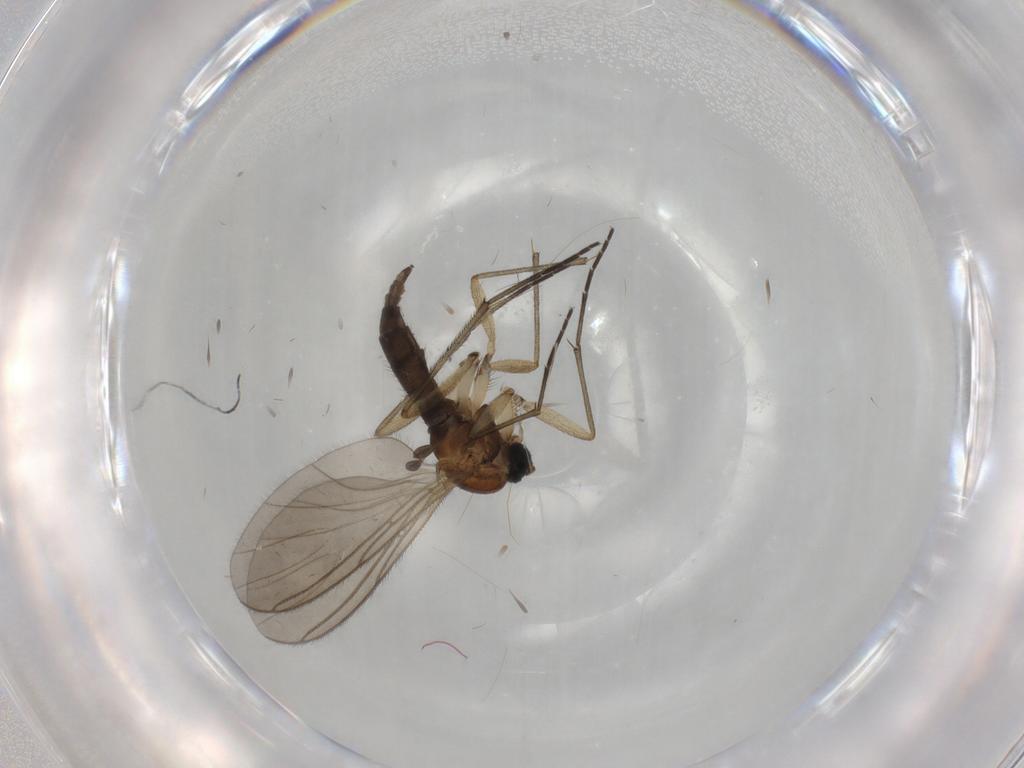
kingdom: Animalia
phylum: Arthropoda
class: Insecta
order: Diptera
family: Sciaridae
